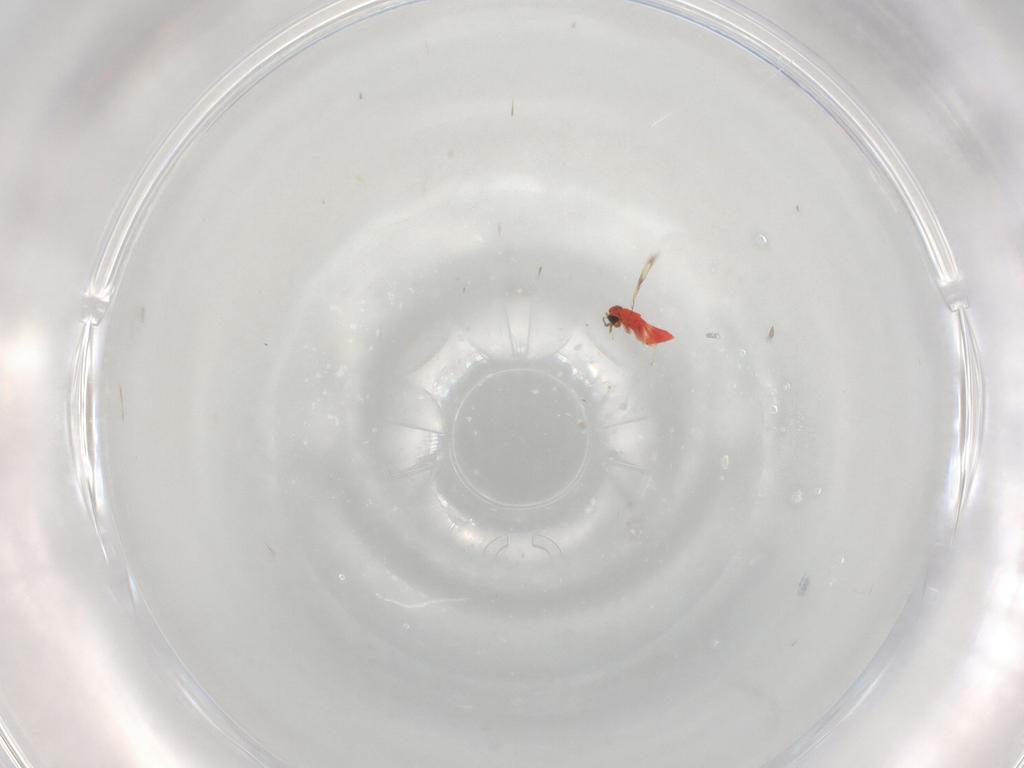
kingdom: Animalia
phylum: Arthropoda
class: Insecta
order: Hymenoptera
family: Trichogrammatidae
